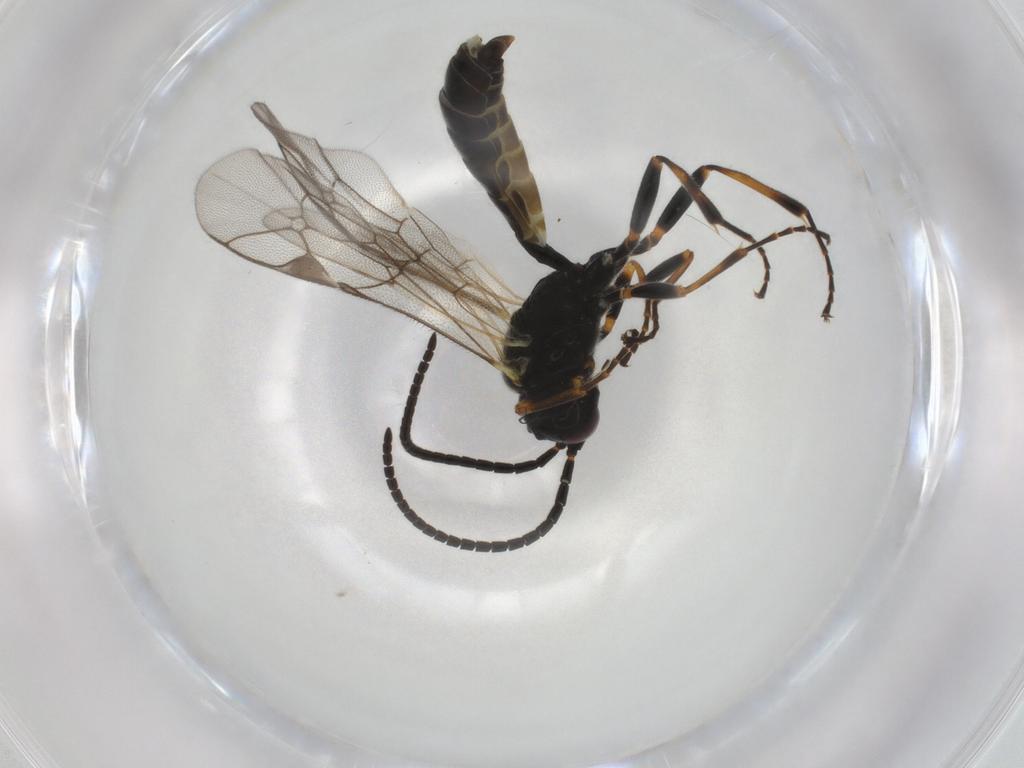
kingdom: Animalia
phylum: Arthropoda
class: Insecta
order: Hymenoptera
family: Ichneumonidae
